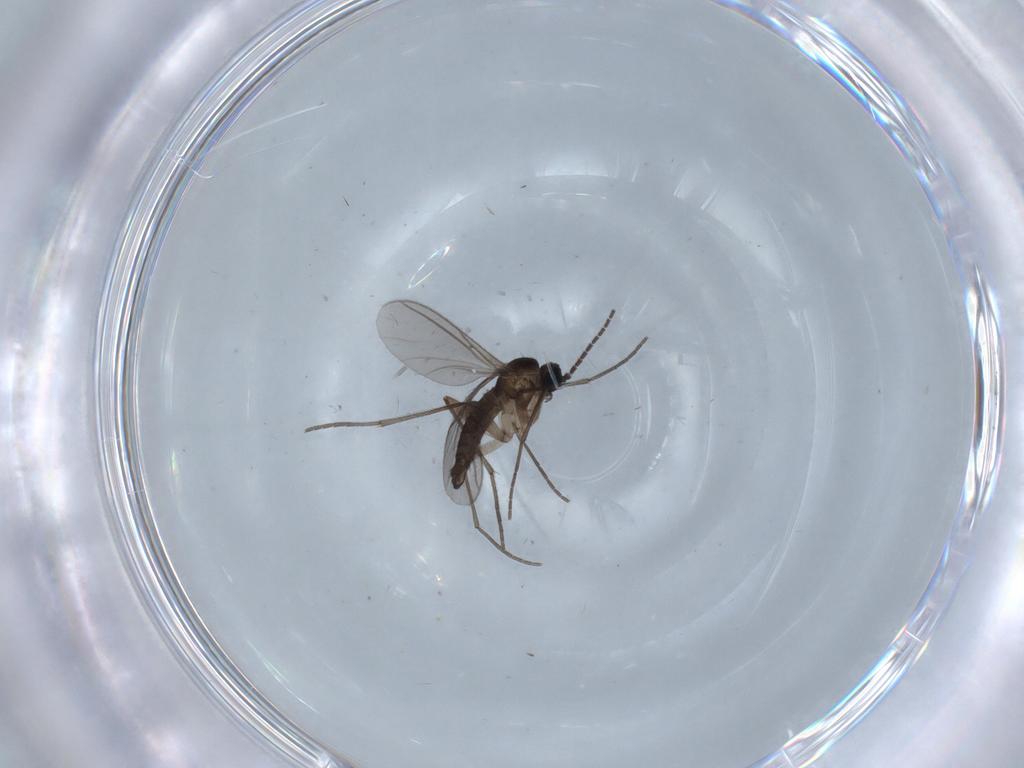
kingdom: Animalia
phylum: Arthropoda
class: Insecta
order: Diptera
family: Sciaridae
